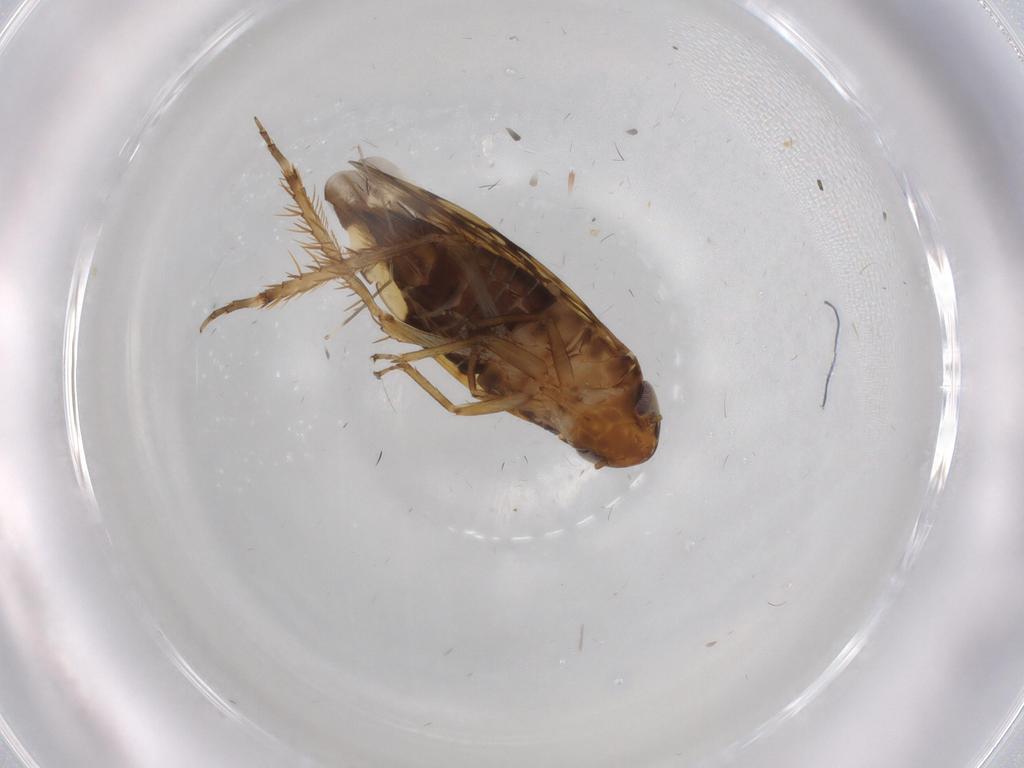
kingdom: Animalia
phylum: Arthropoda
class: Insecta
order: Hemiptera
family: Cicadellidae
